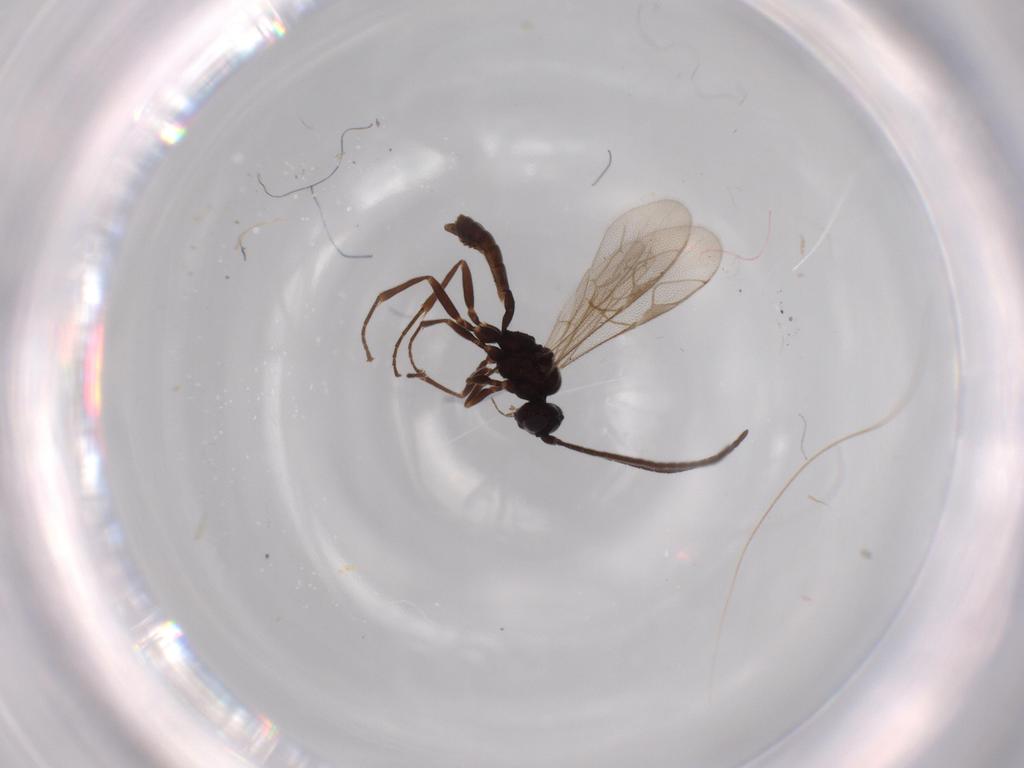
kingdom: Animalia
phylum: Arthropoda
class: Insecta
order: Hymenoptera
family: Ichneumonidae
